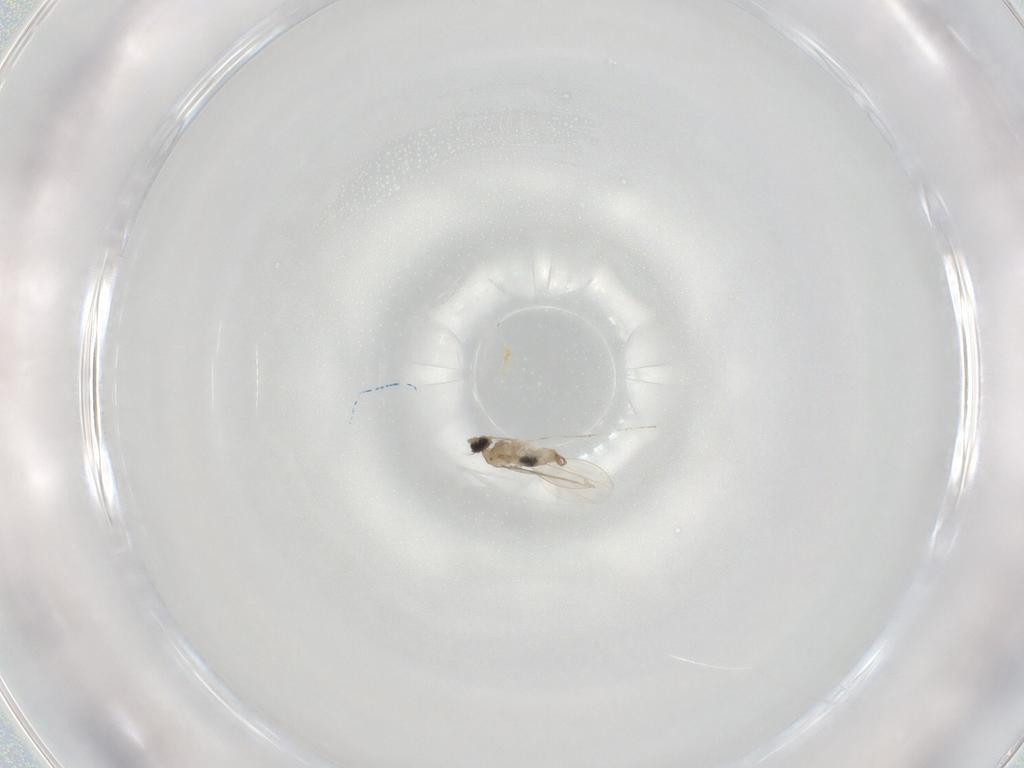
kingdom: Animalia
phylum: Arthropoda
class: Insecta
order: Diptera
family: Cecidomyiidae
